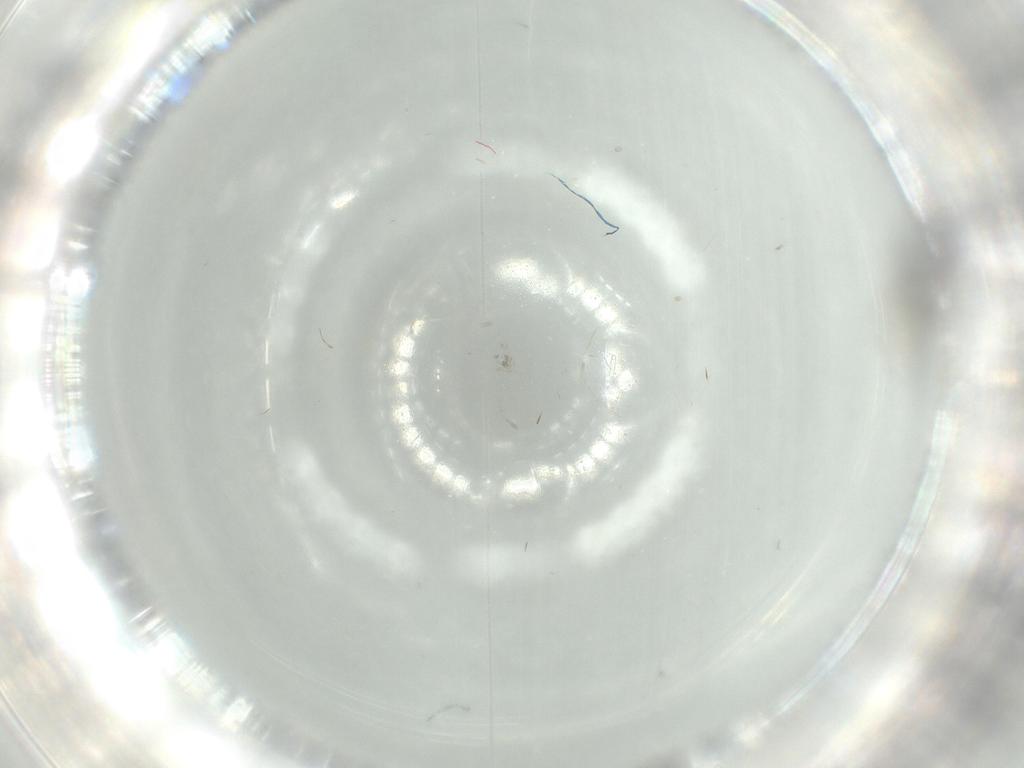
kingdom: Animalia
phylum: Arthropoda
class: Insecta
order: Diptera
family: Sciaridae
